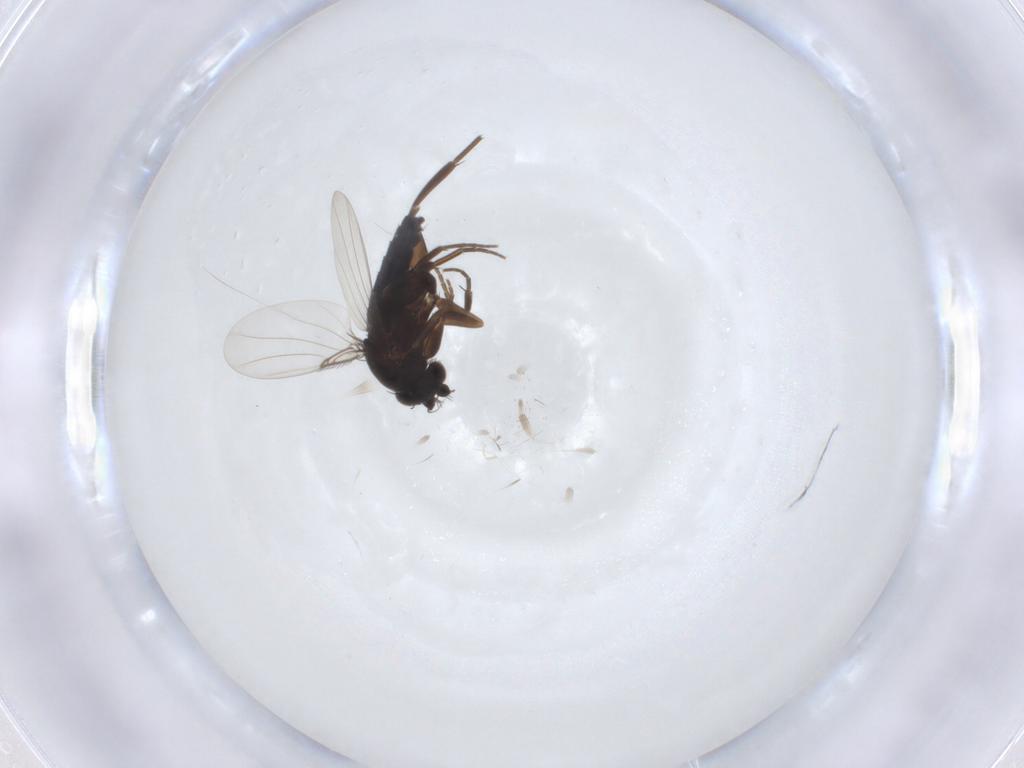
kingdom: Animalia
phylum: Arthropoda
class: Insecta
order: Diptera
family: Phoridae
